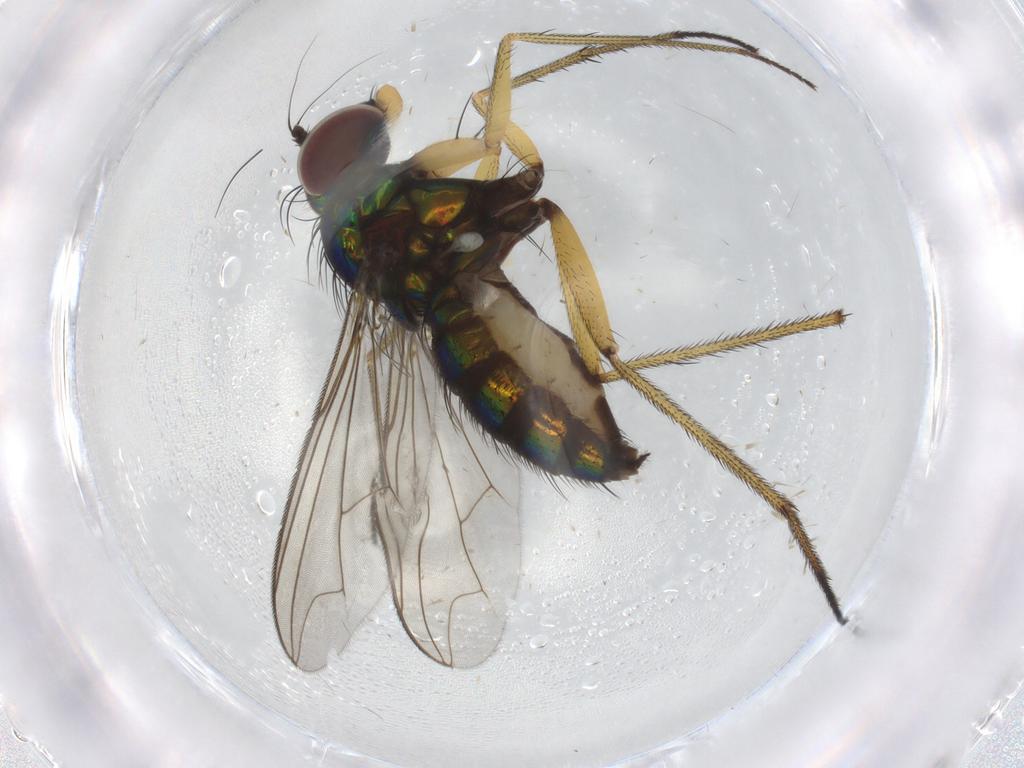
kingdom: Animalia
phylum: Arthropoda
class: Insecta
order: Diptera
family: Dolichopodidae
